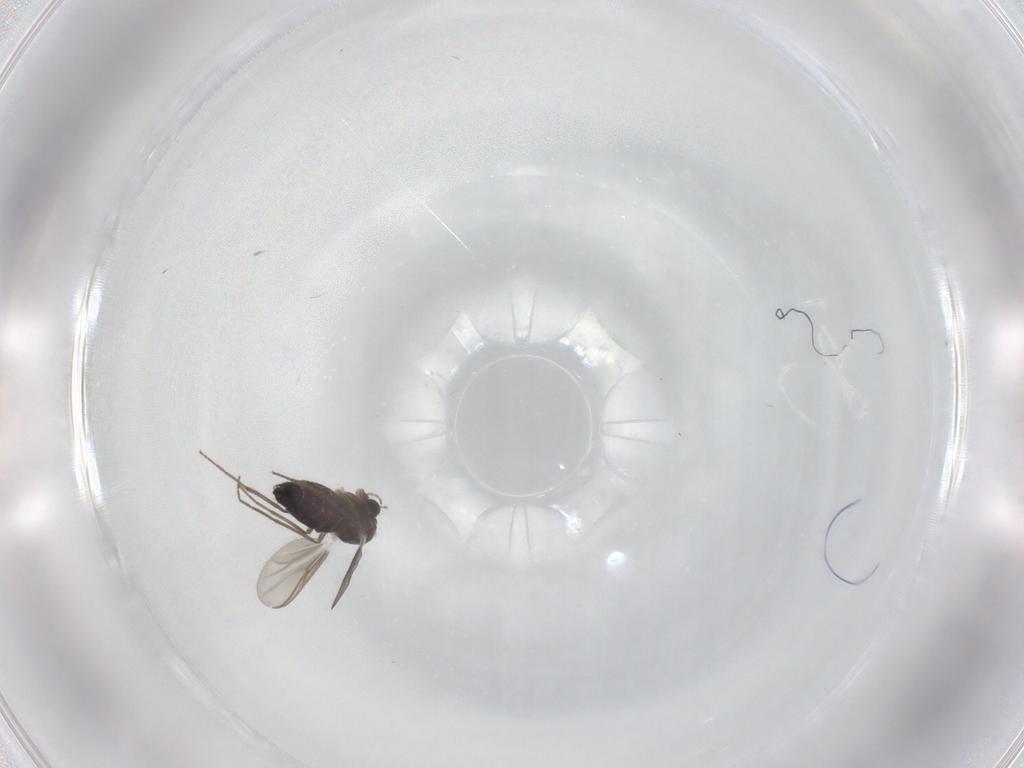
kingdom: Animalia
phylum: Arthropoda
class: Insecta
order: Diptera
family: Chironomidae
